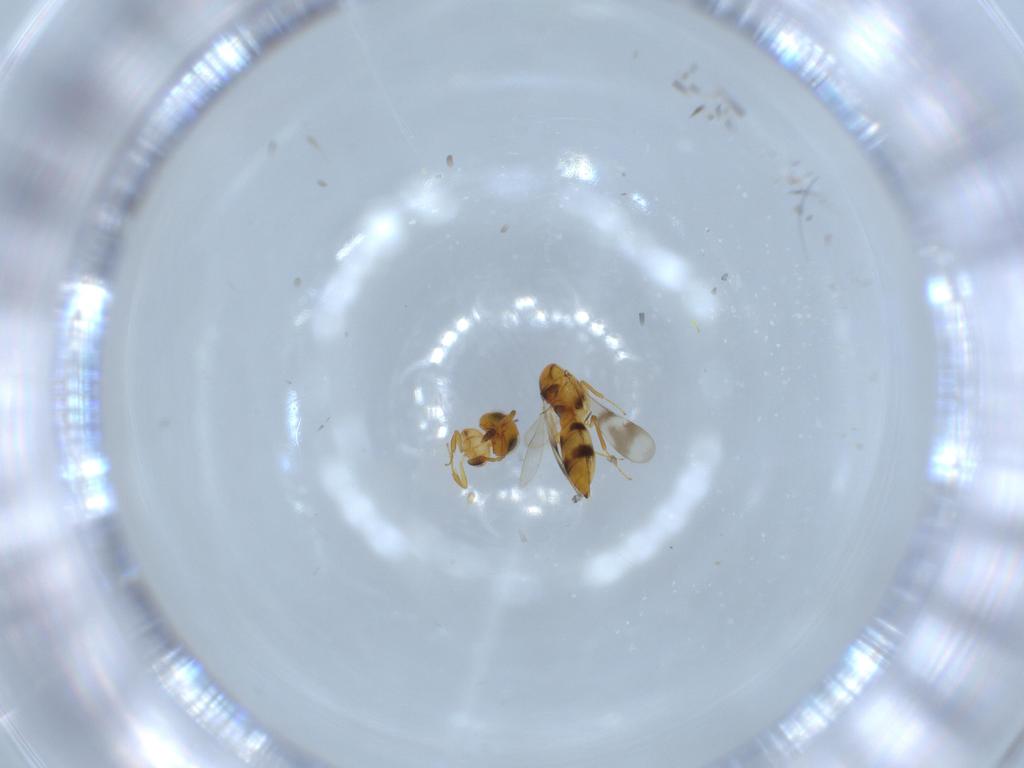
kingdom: Animalia
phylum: Arthropoda
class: Insecta
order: Hymenoptera
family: Scelionidae
